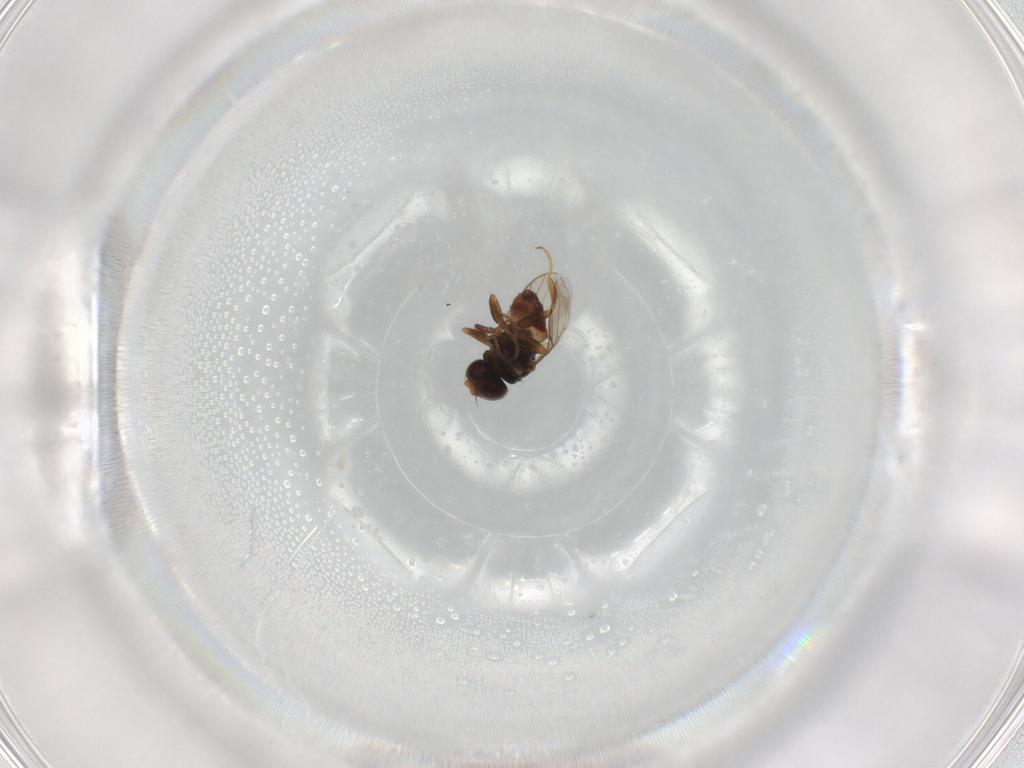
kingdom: Animalia
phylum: Arthropoda
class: Insecta
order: Diptera
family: Chloropidae
